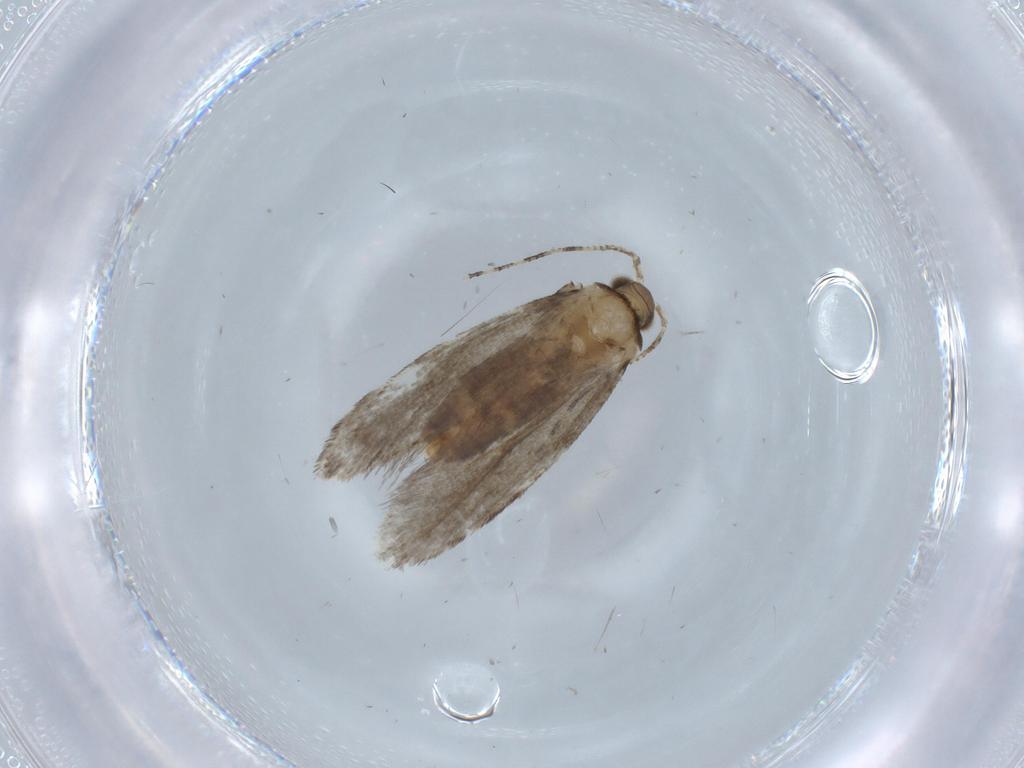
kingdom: Animalia
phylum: Arthropoda
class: Insecta
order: Lepidoptera
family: Tineidae
